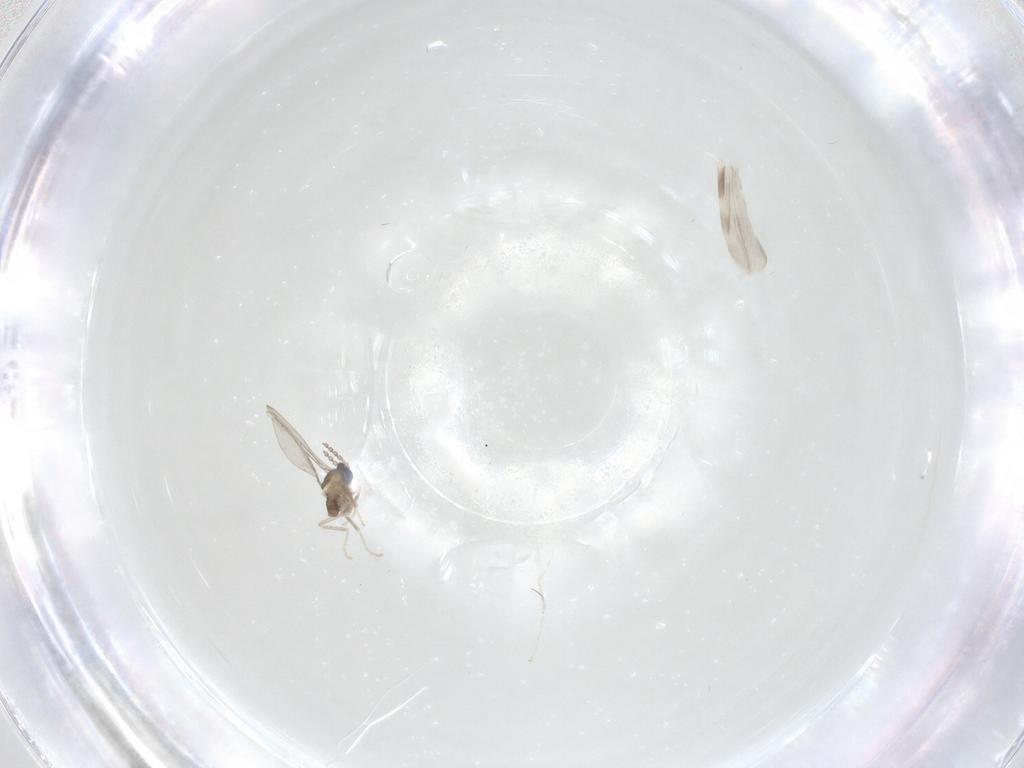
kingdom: Animalia
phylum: Arthropoda
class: Insecta
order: Diptera
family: Cecidomyiidae
